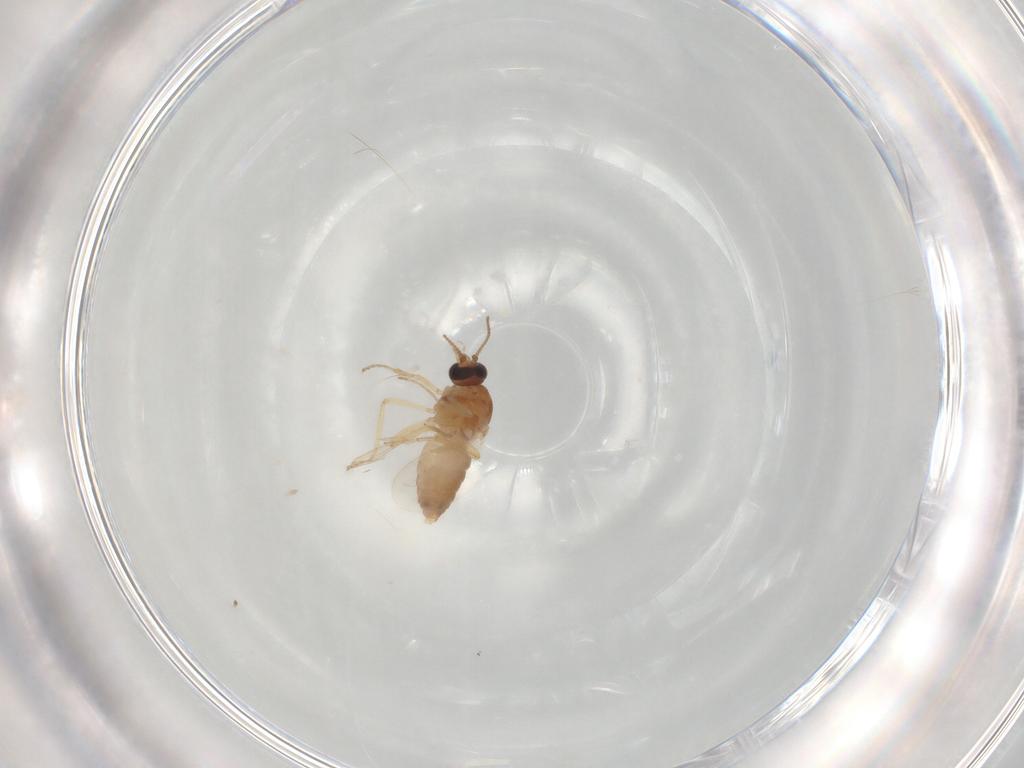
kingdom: Animalia
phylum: Arthropoda
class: Insecta
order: Diptera
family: Ceratopogonidae
